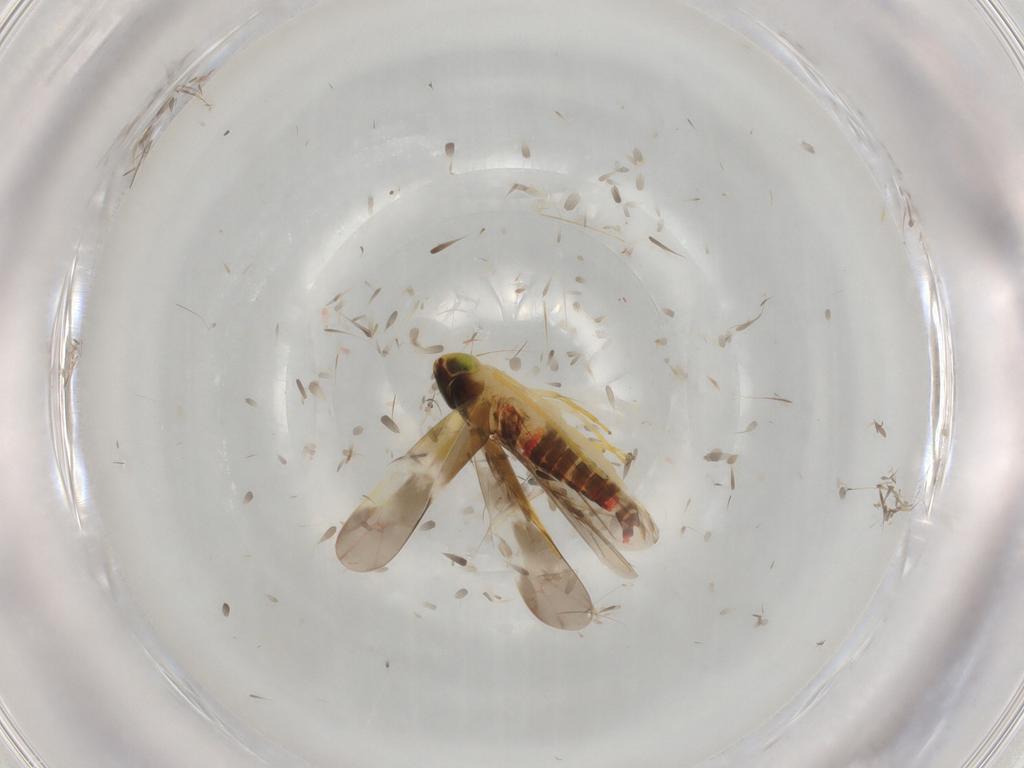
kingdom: Animalia
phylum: Arthropoda
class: Insecta
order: Hemiptera
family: Cicadellidae
